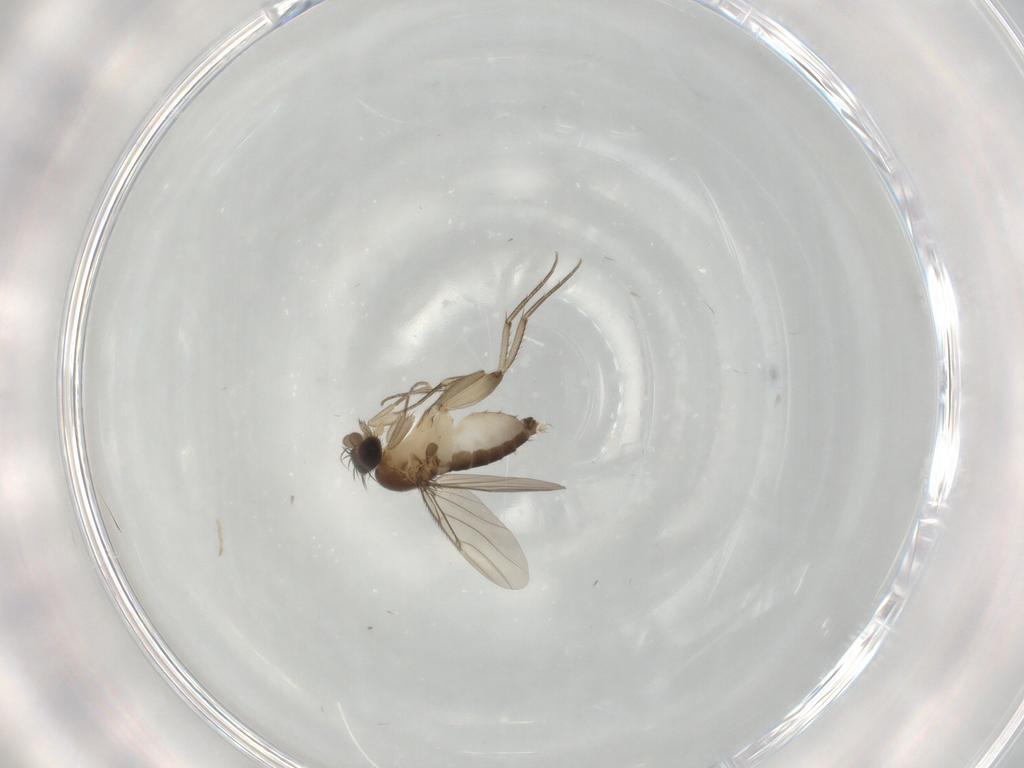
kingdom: Animalia
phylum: Arthropoda
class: Insecta
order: Diptera
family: Phoridae
